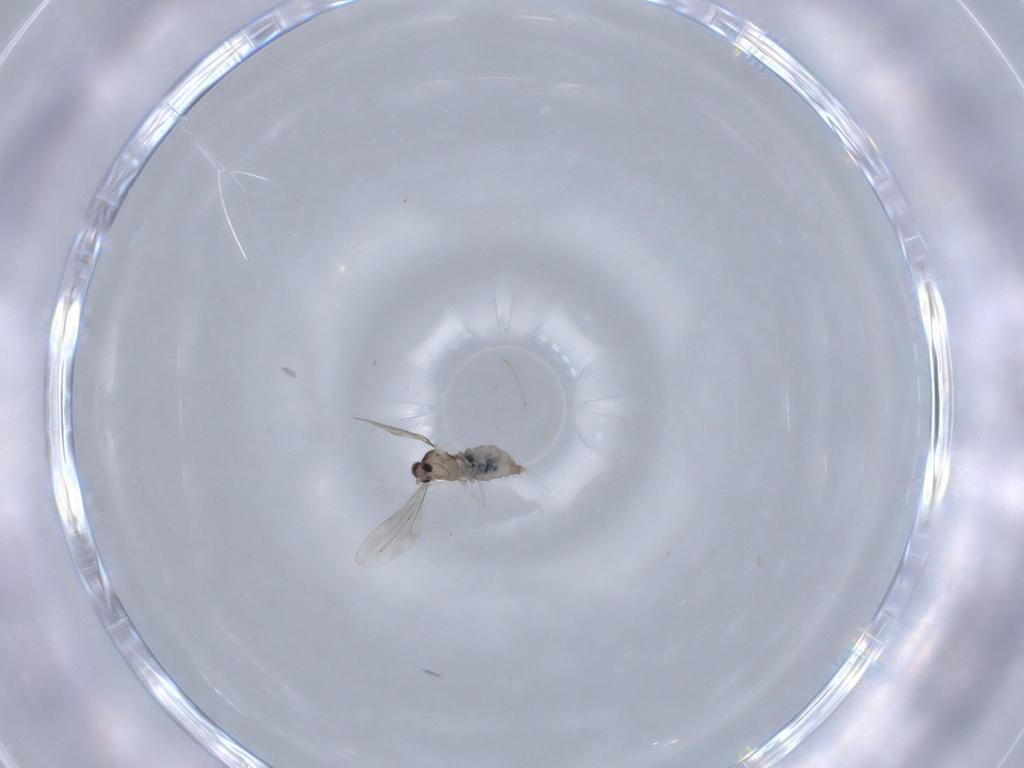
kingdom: Animalia
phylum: Arthropoda
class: Insecta
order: Diptera
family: Cecidomyiidae
